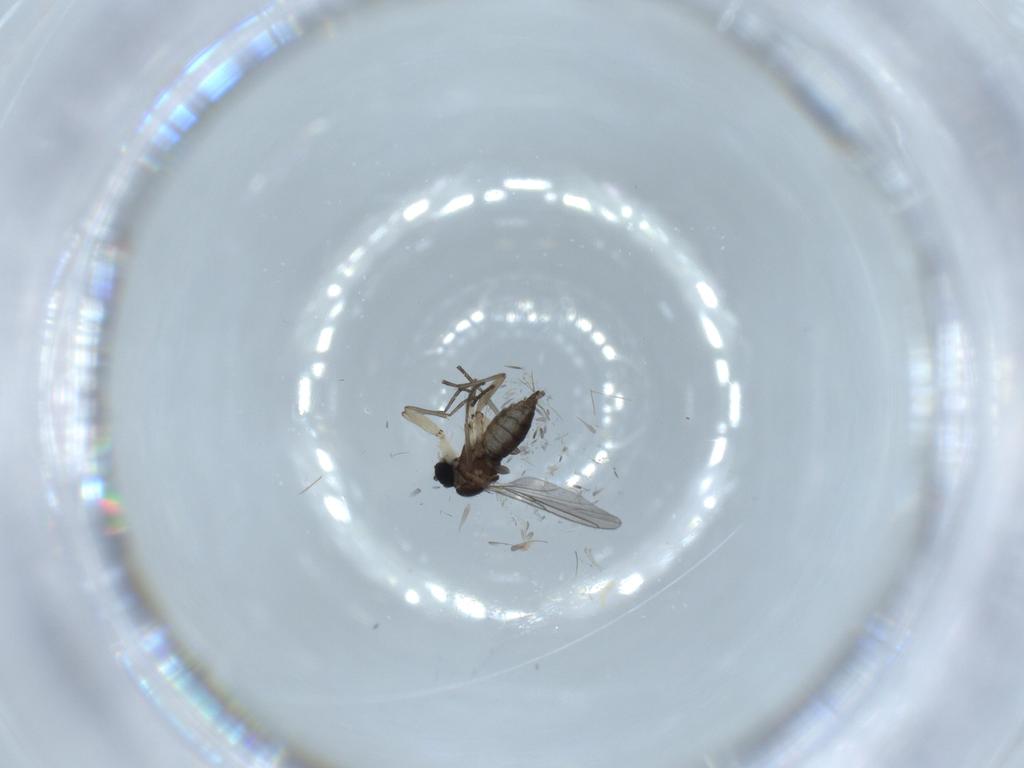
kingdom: Animalia
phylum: Arthropoda
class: Insecta
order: Diptera
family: Sciaridae
